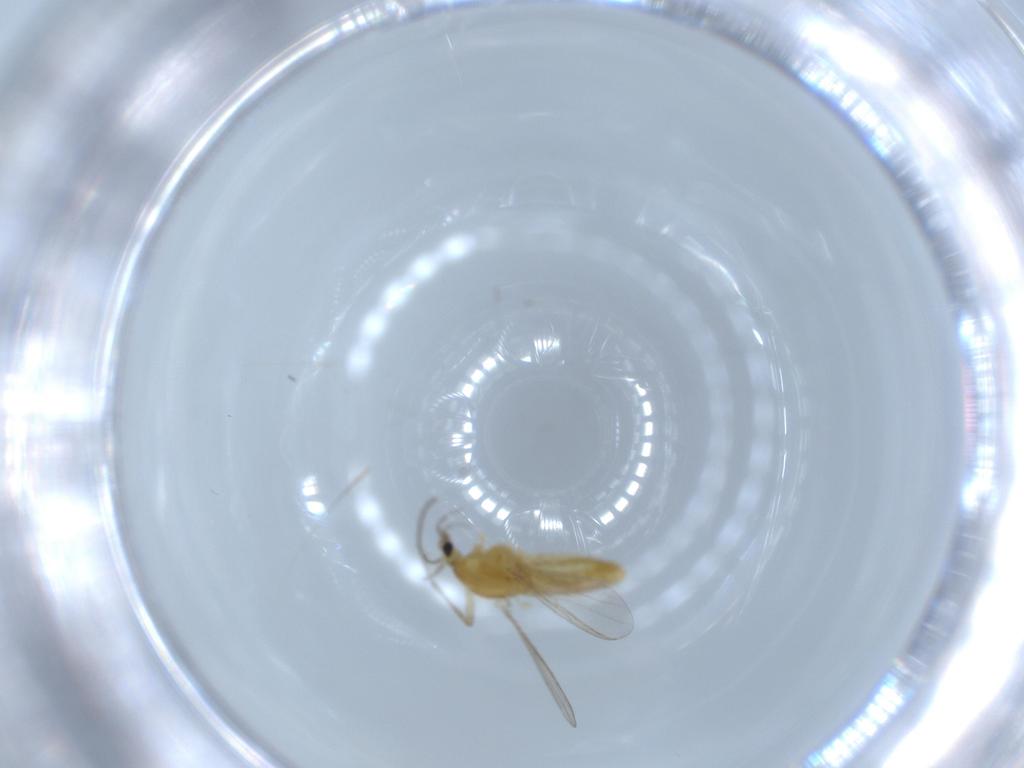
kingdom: Animalia
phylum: Arthropoda
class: Insecta
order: Diptera
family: Chironomidae
